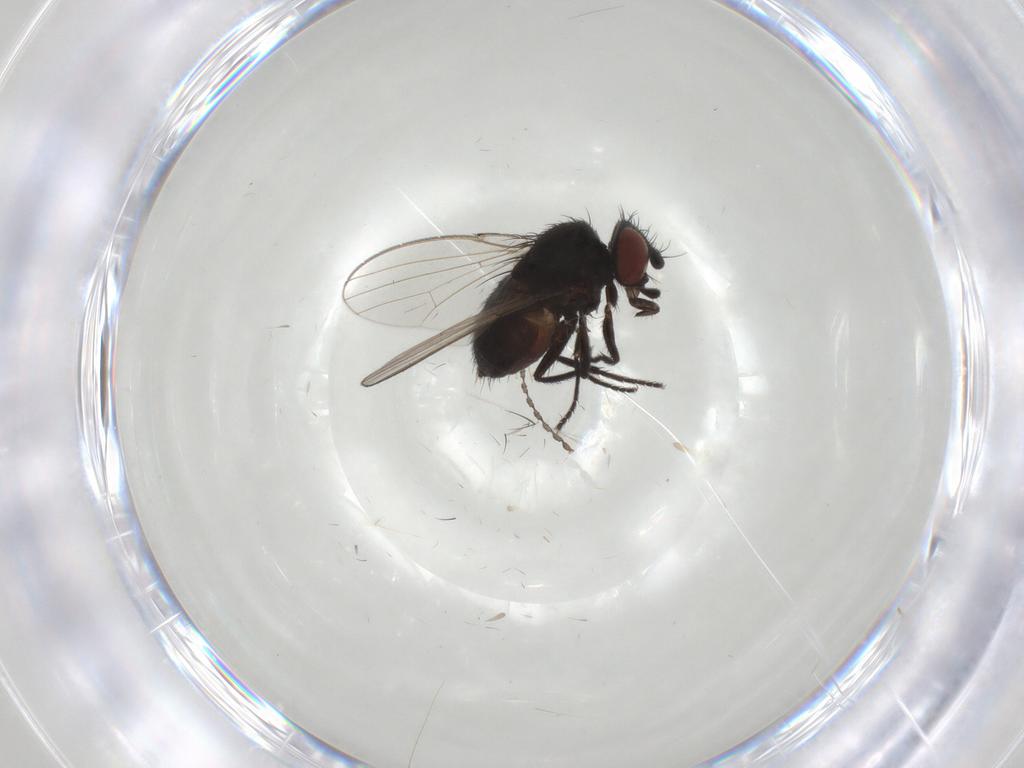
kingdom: Animalia
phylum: Arthropoda
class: Insecta
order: Diptera
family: Milichiidae
